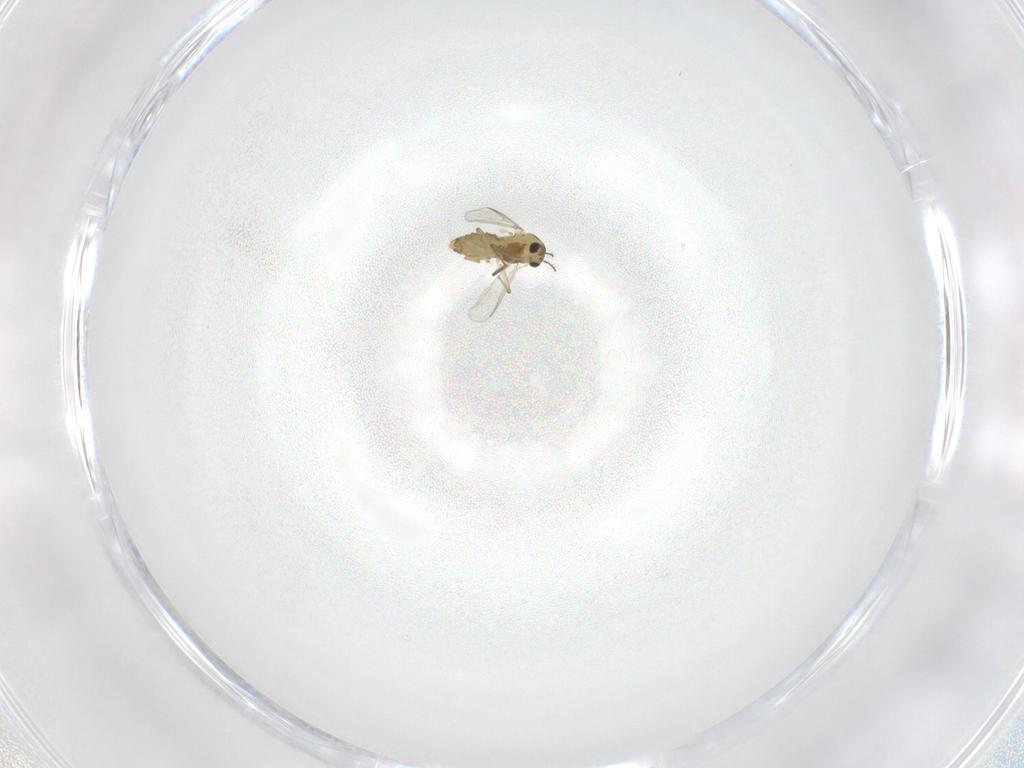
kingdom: Animalia
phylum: Arthropoda
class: Insecta
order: Diptera
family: Chironomidae
